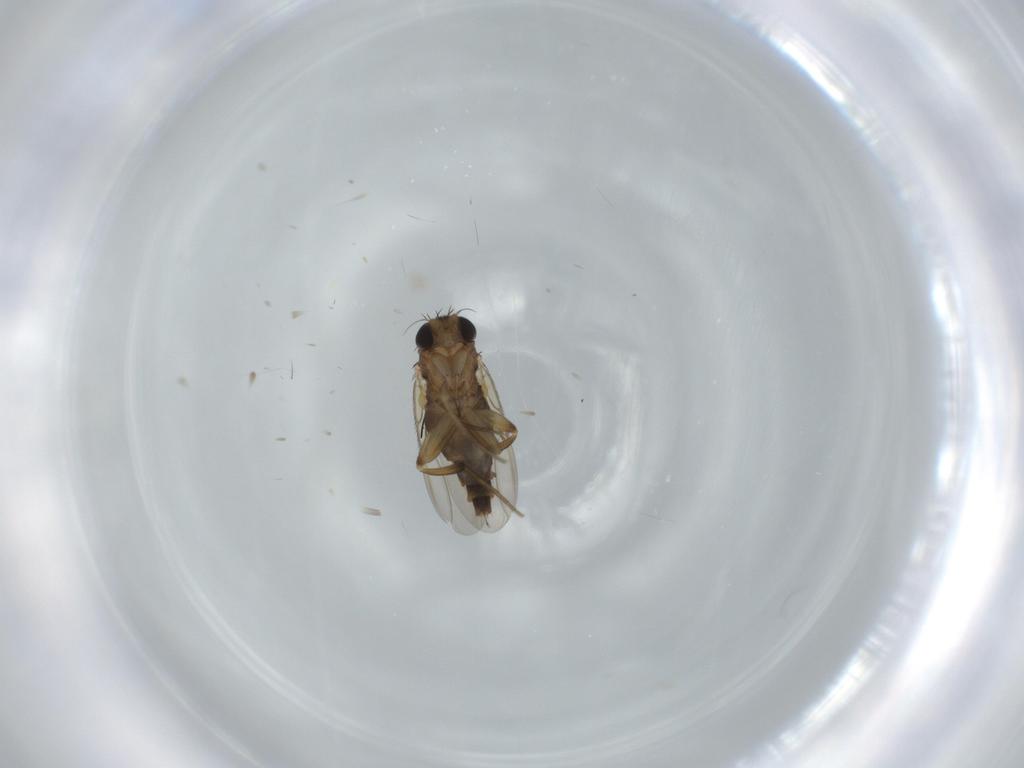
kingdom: Animalia
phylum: Arthropoda
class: Insecta
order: Diptera
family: Phoridae
